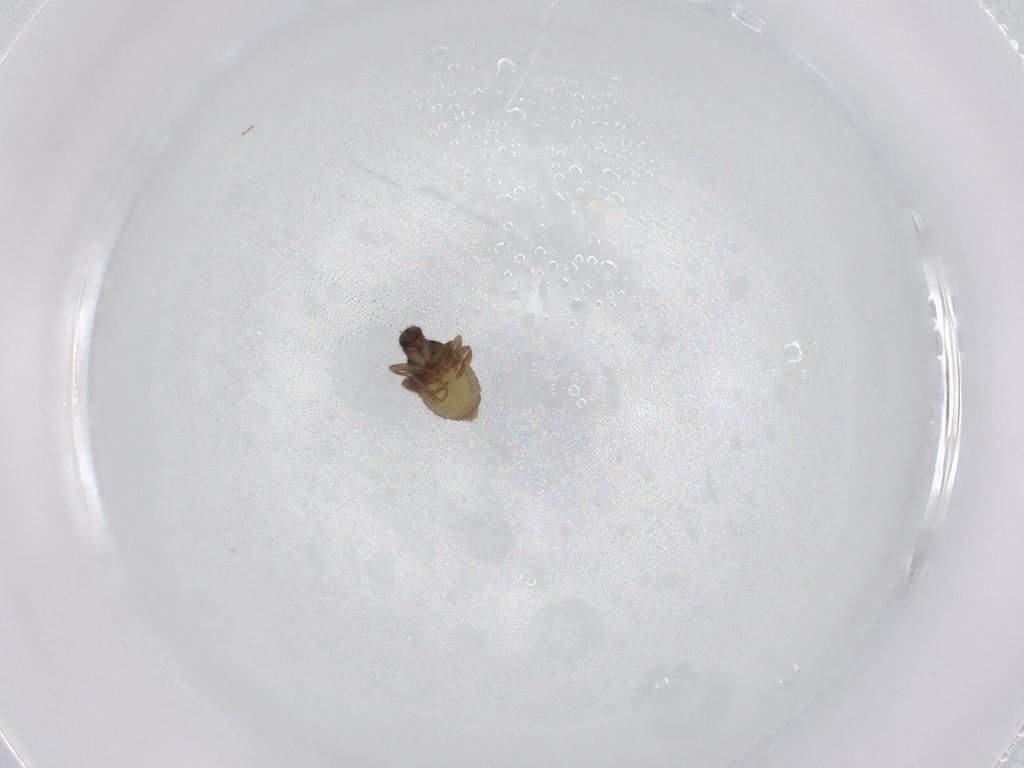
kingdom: Animalia
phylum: Arthropoda
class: Insecta
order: Diptera
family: Phoridae
